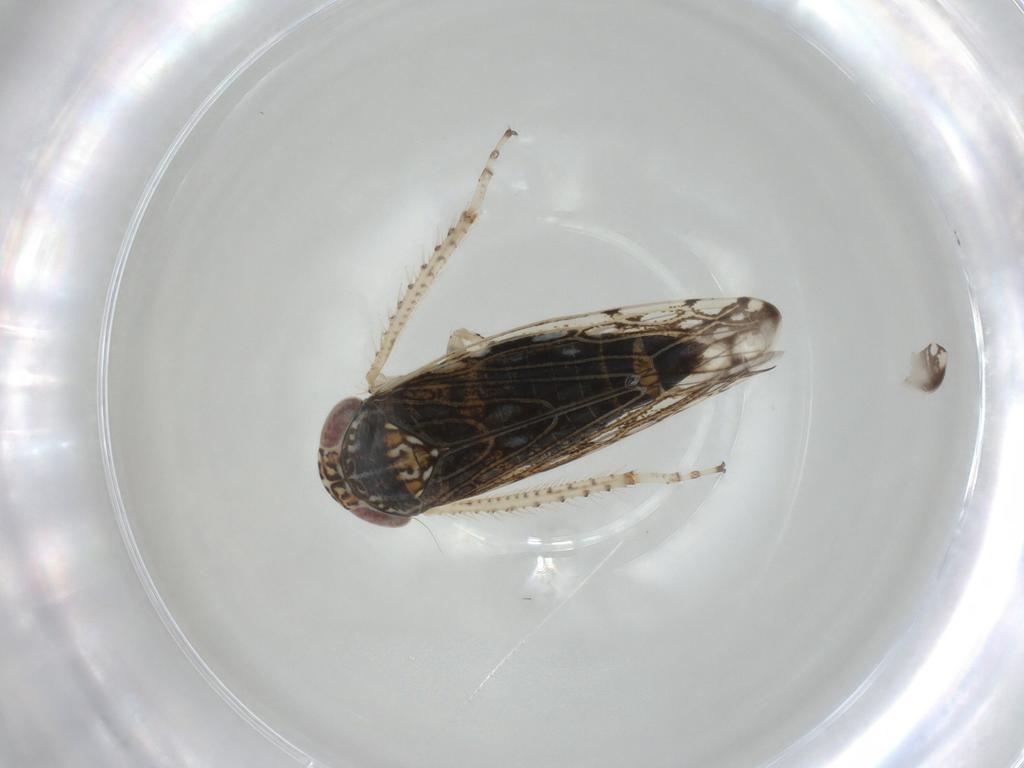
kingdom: Animalia
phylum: Arthropoda
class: Insecta
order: Hemiptera
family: Cicadellidae
